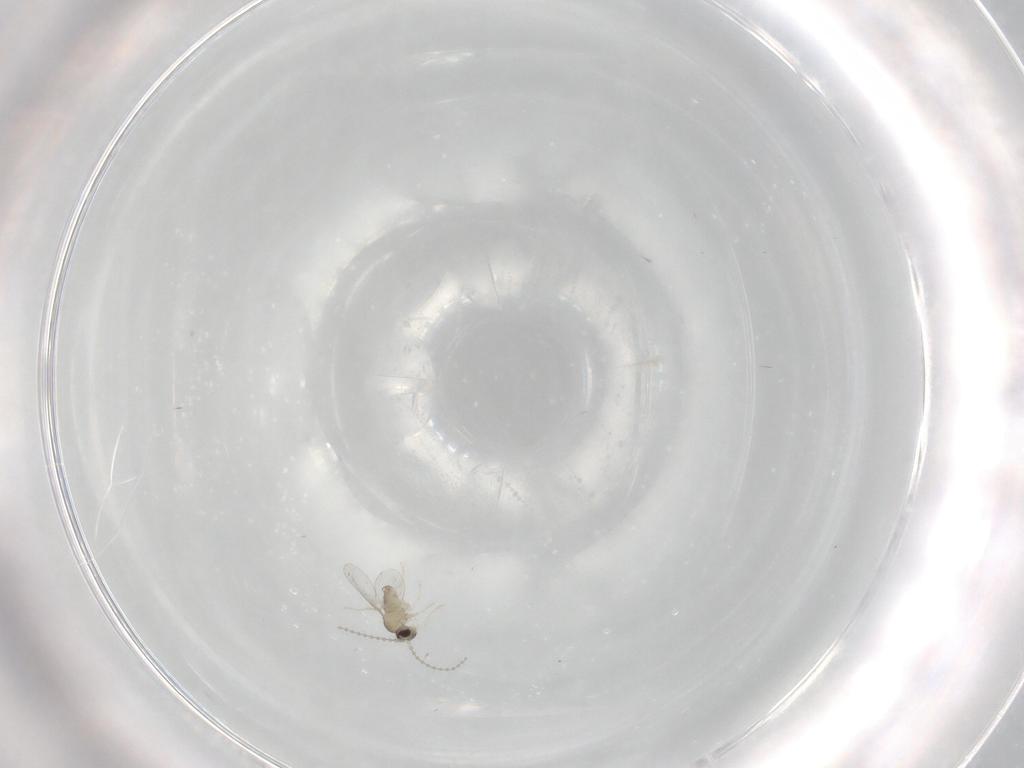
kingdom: Animalia
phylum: Arthropoda
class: Insecta
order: Diptera
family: Cecidomyiidae
